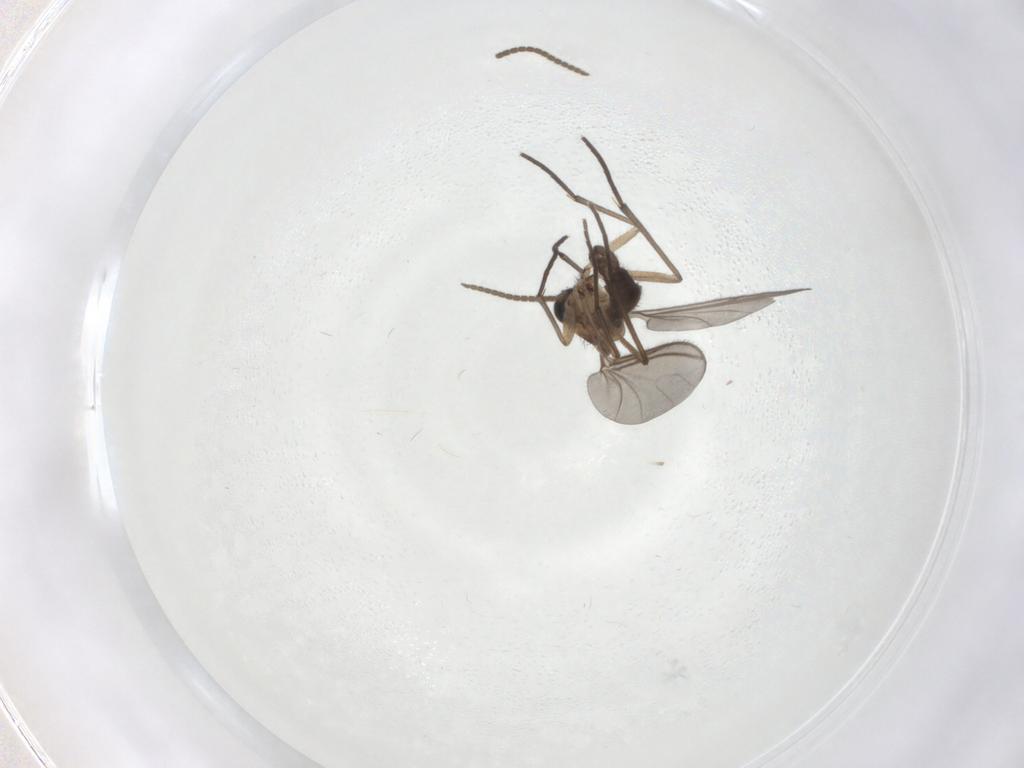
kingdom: Animalia
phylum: Arthropoda
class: Insecta
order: Diptera
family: Sciaridae
